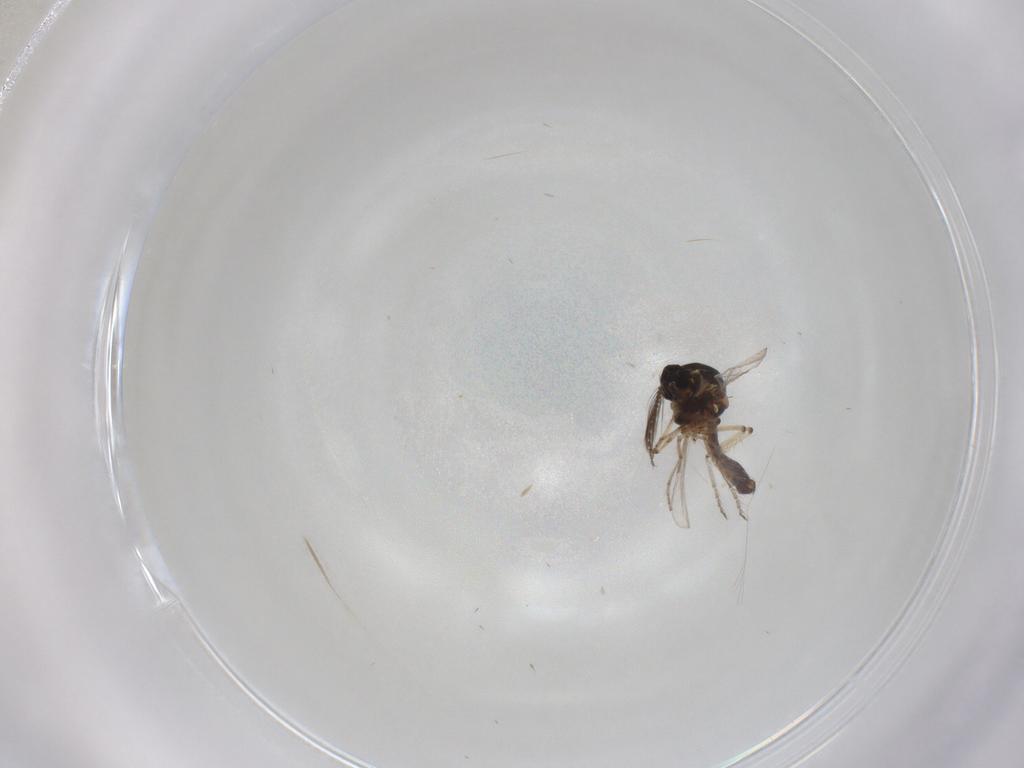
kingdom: Animalia
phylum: Arthropoda
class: Insecta
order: Diptera
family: Ceratopogonidae
